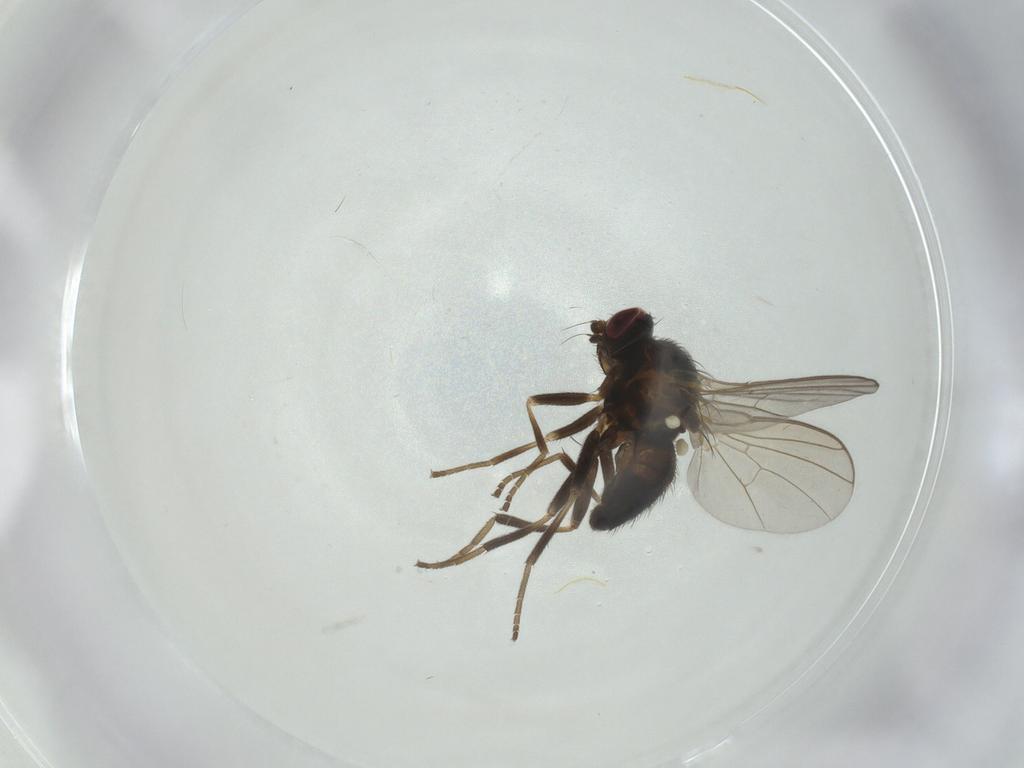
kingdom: Animalia
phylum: Arthropoda
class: Insecta
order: Diptera
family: Agromyzidae
